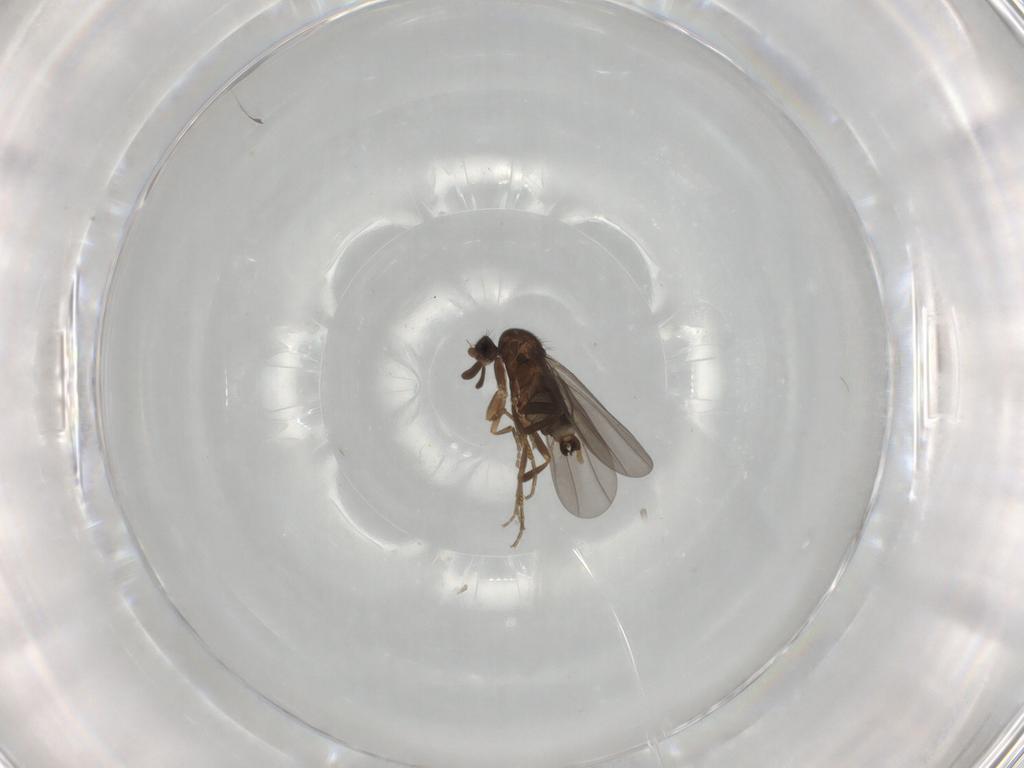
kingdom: Animalia
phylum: Arthropoda
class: Insecta
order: Diptera
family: Phoridae
